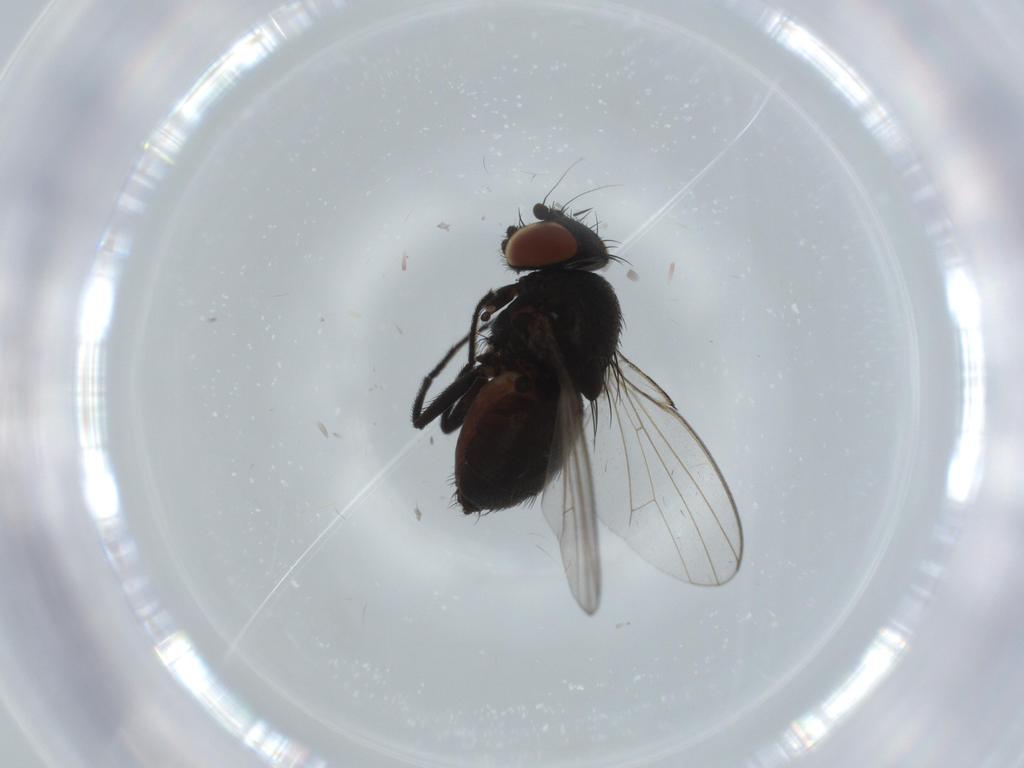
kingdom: Animalia
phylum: Arthropoda
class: Insecta
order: Diptera
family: Milichiidae
